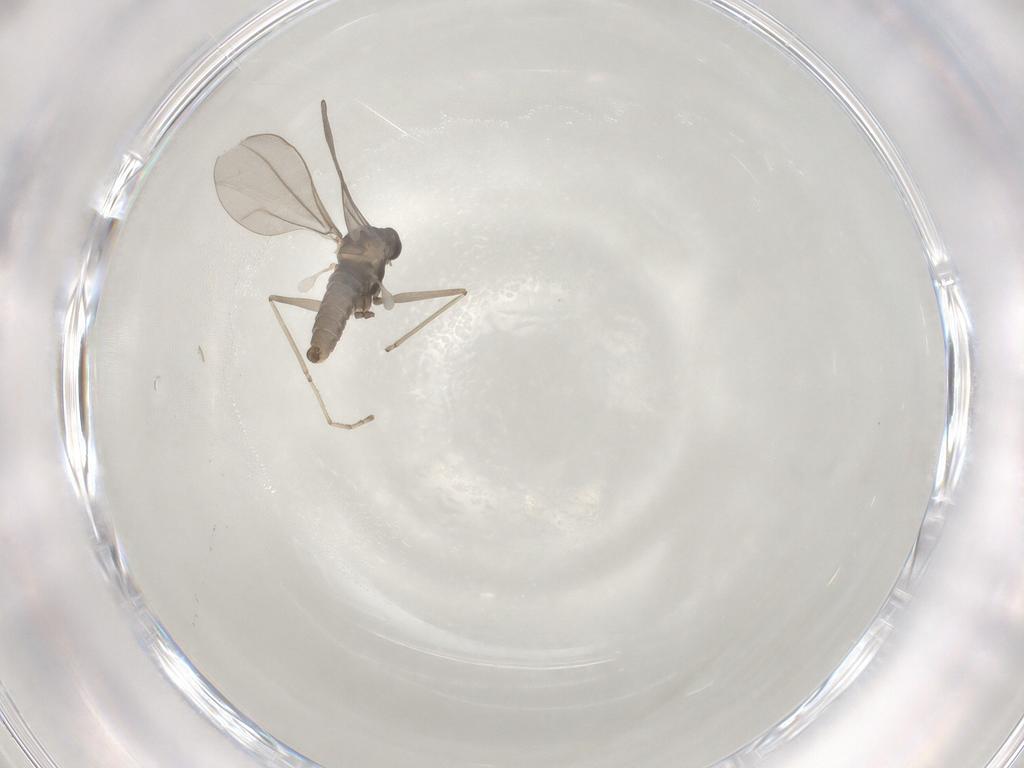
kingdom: Animalia
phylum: Arthropoda
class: Insecta
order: Diptera
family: Cecidomyiidae
